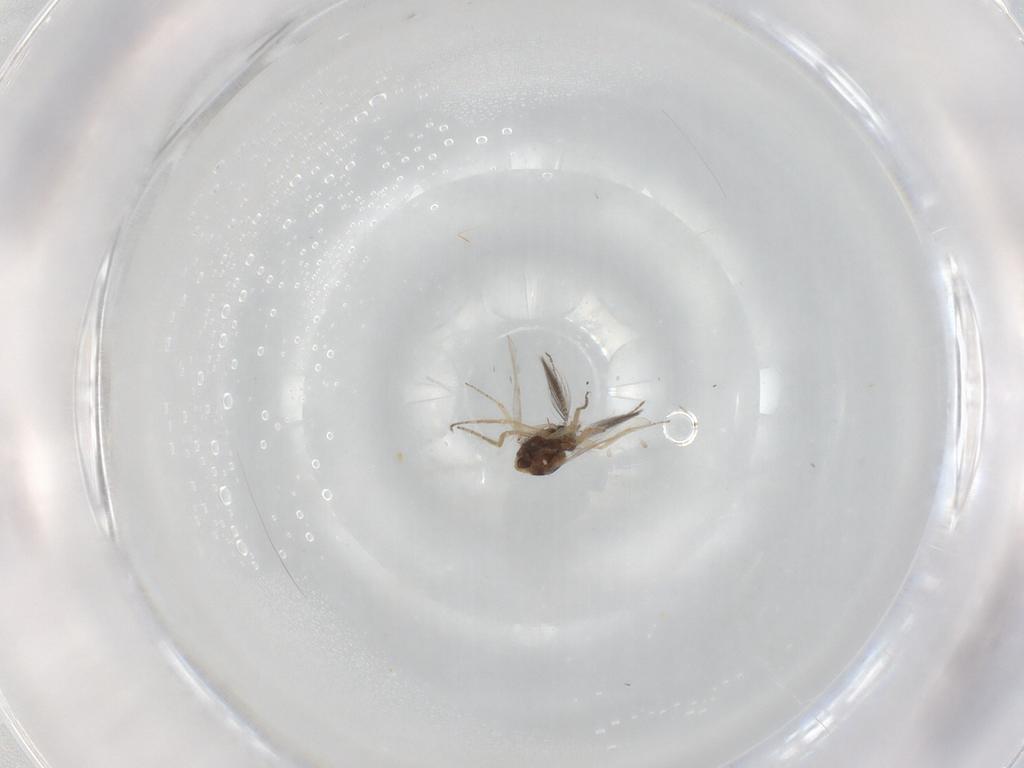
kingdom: Animalia
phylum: Arthropoda
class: Insecta
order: Diptera
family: Ceratopogonidae
